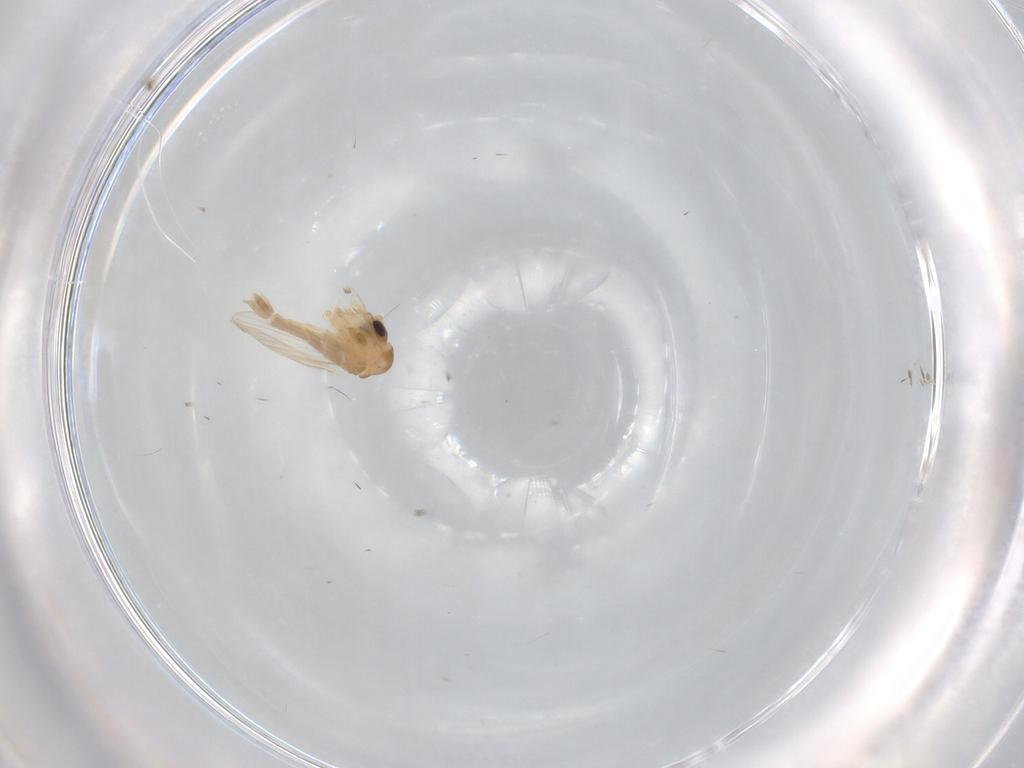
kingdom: Animalia
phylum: Arthropoda
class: Insecta
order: Diptera
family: Psychodidae
